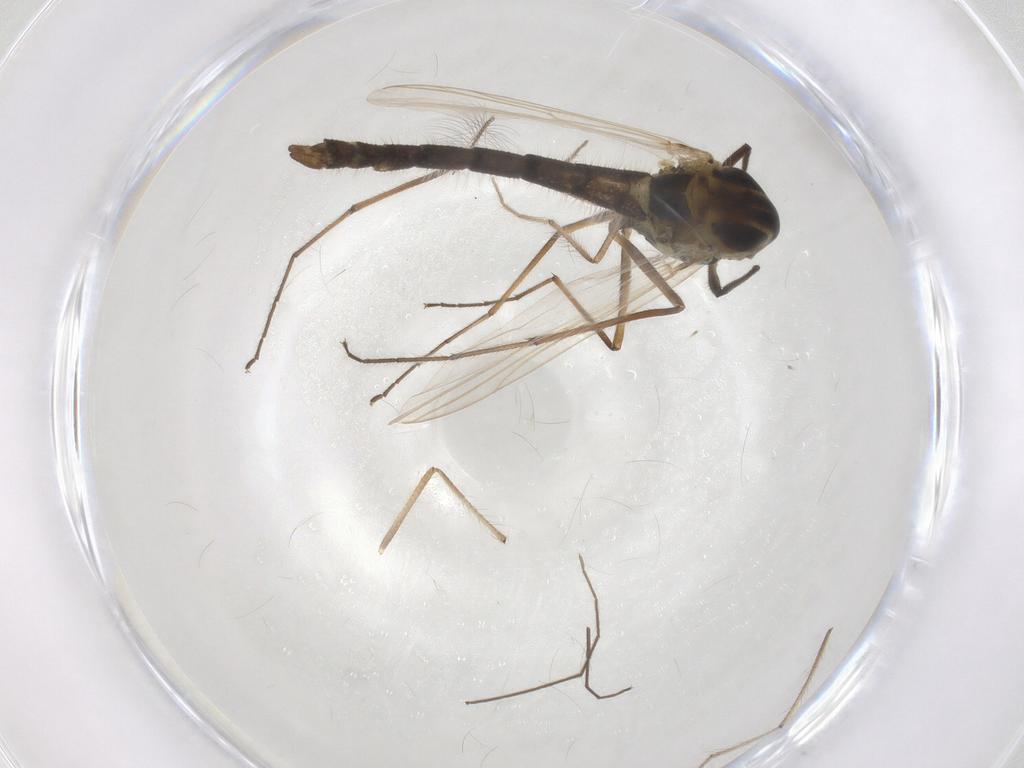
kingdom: Animalia
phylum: Arthropoda
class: Insecta
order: Diptera
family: Chironomidae
